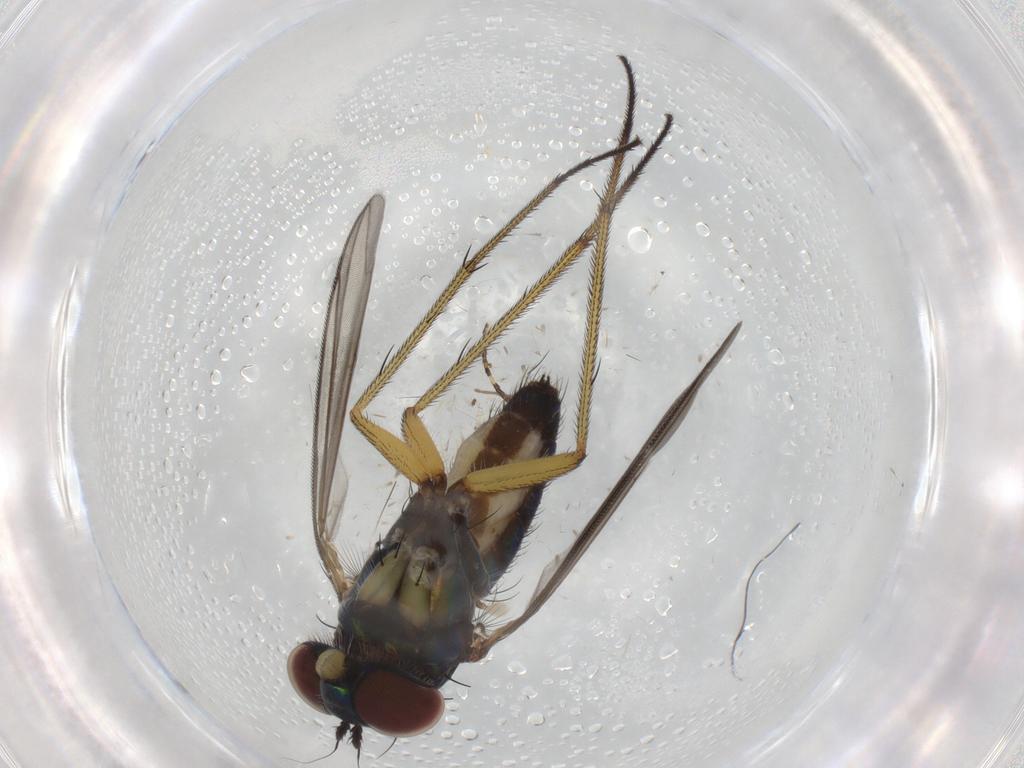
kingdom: Animalia
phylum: Arthropoda
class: Insecta
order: Diptera
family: Dolichopodidae
